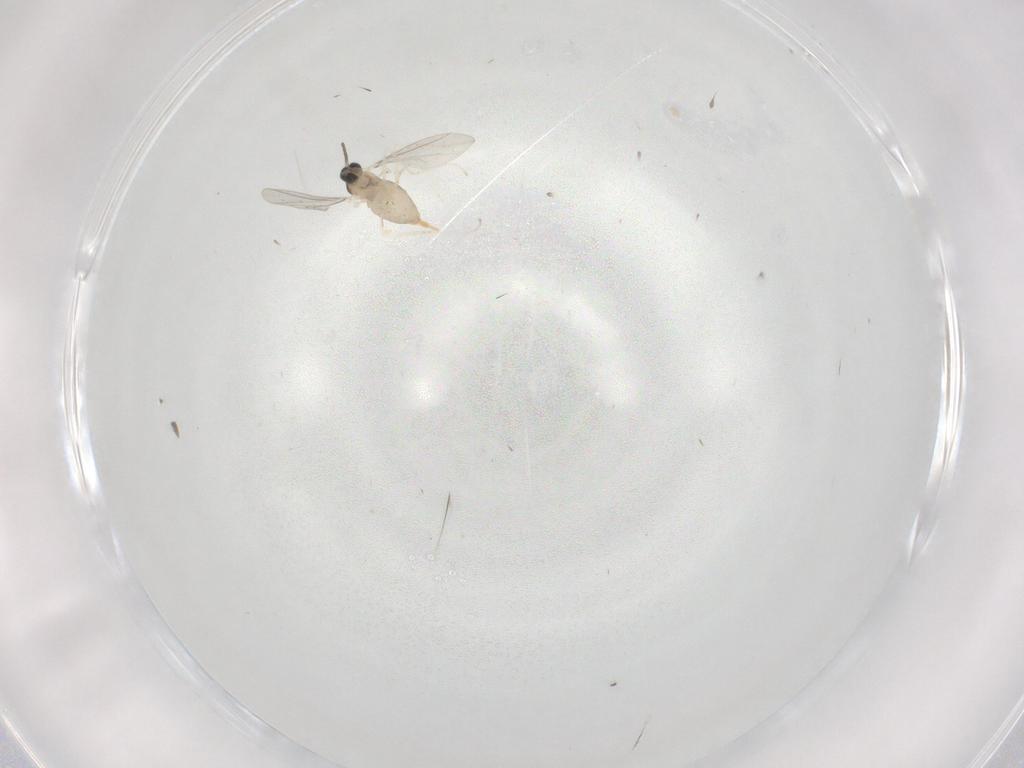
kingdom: Animalia
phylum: Arthropoda
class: Insecta
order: Diptera
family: Cecidomyiidae
